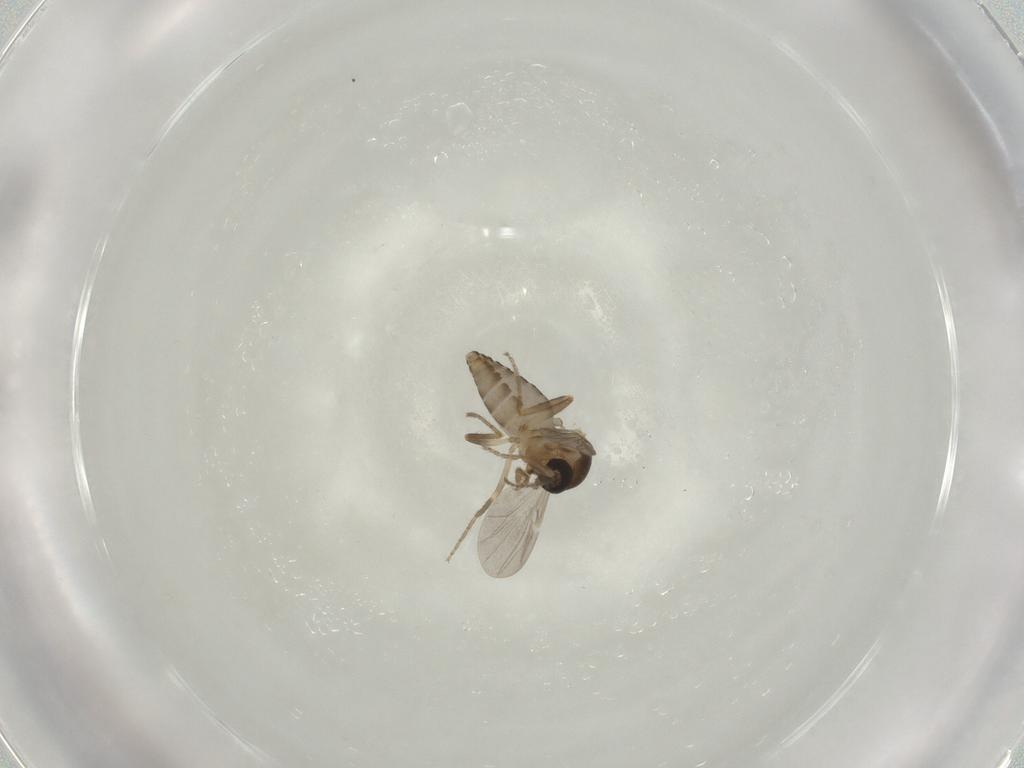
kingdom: Animalia
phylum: Arthropoda
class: Insecta
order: Diptera
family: Ceratopogonidae
